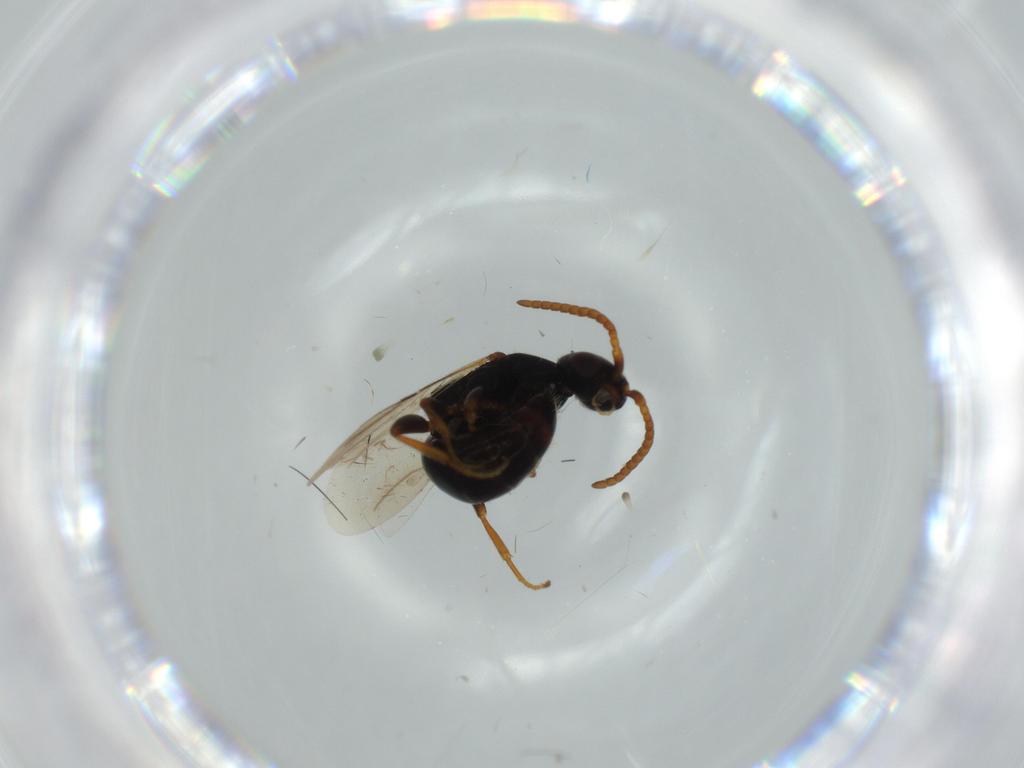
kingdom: Animalia
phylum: Arthropoda
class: Insecta
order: Hymenoptera
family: Bethylidae
